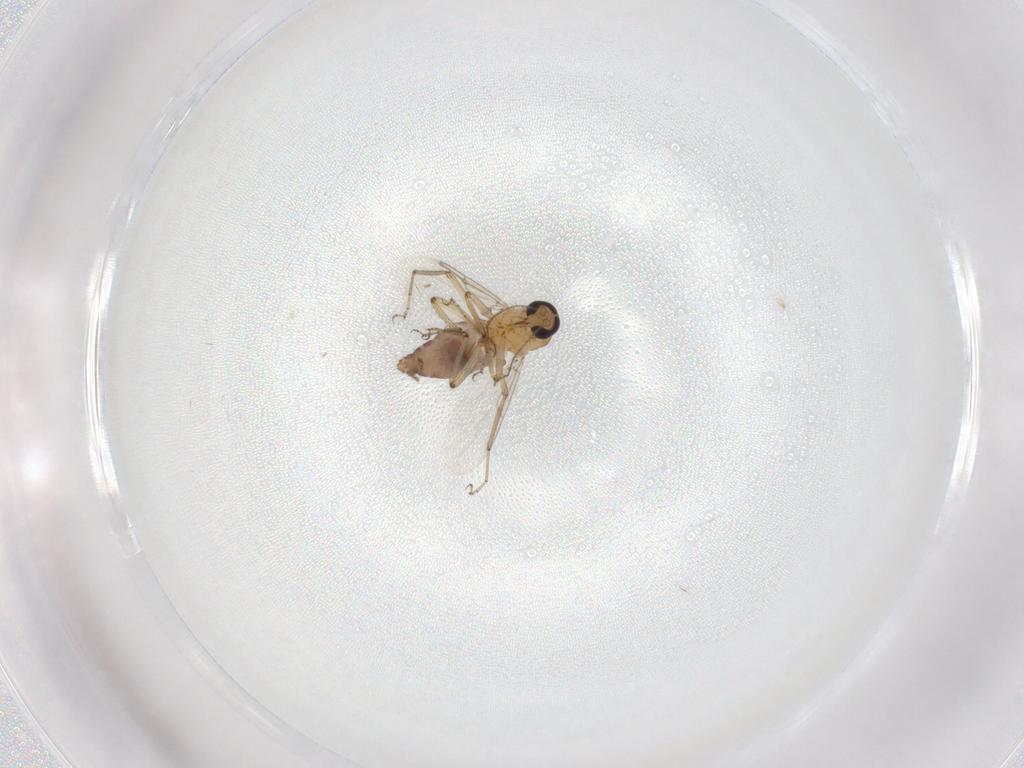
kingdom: Animalia
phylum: Arthropoda
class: Insecta
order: Diptera
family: Ceratopogonidae
